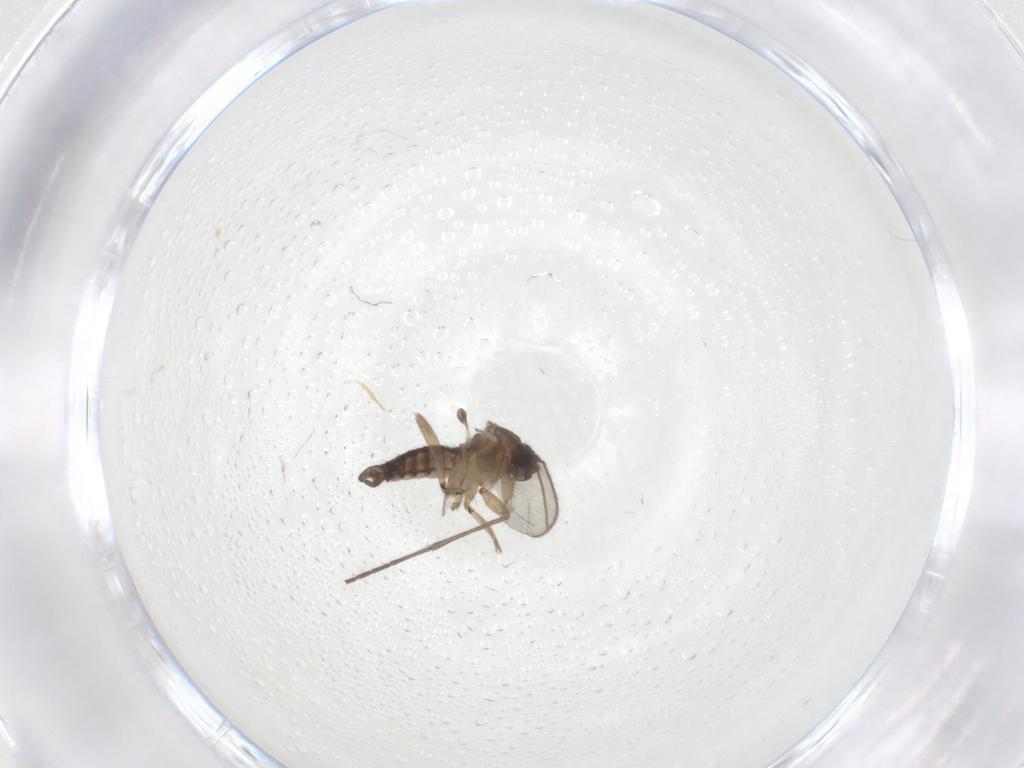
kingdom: Animalia
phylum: Arthropoda
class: Insecta
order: Diptera
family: Sciaridae
